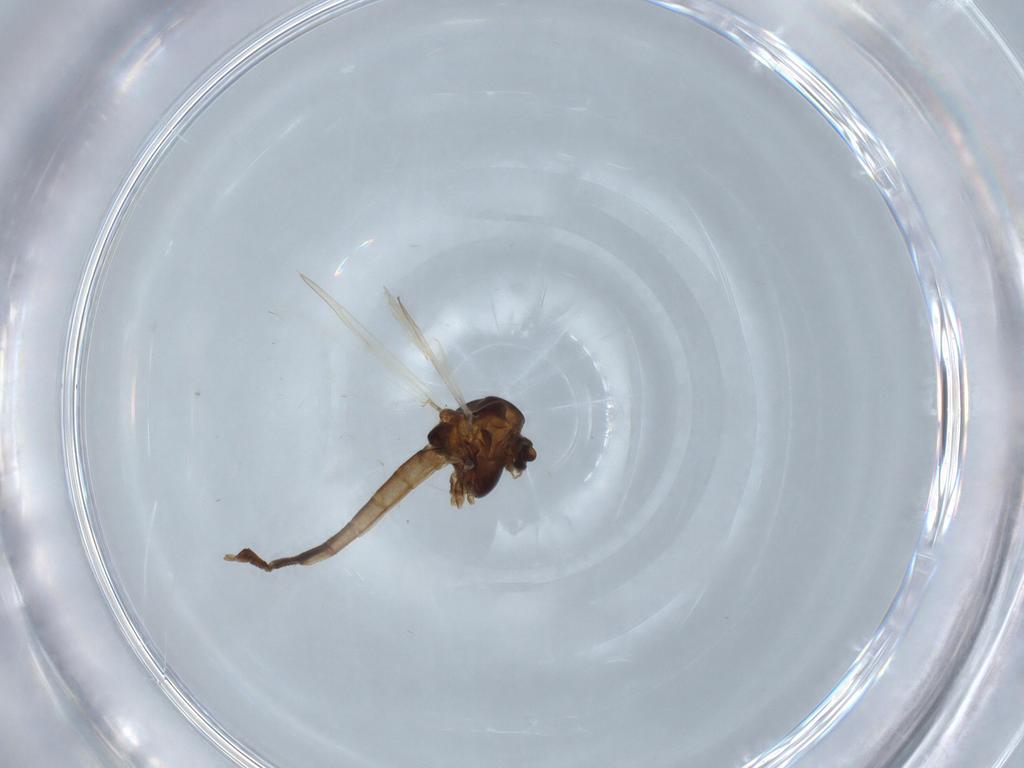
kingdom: Animalia
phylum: Arthropoda
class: Insecta
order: Diptera
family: Chironomidae
